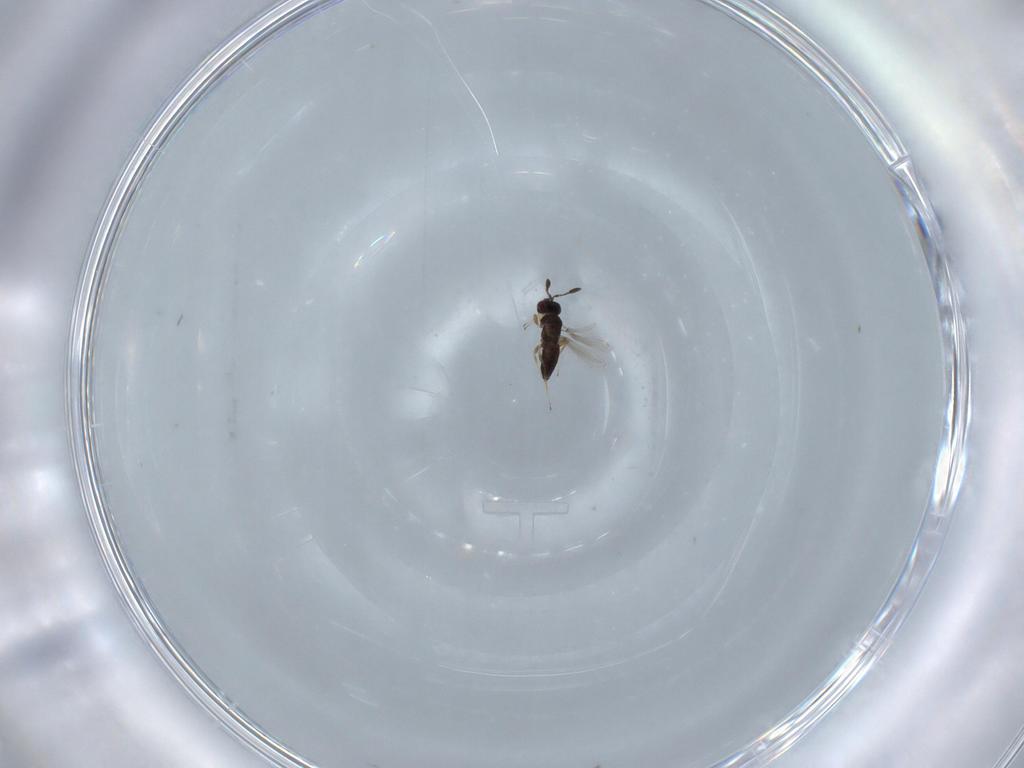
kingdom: Animalia
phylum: Arthropoda
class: Insecta
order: Hymenoptera
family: Mymaridae
